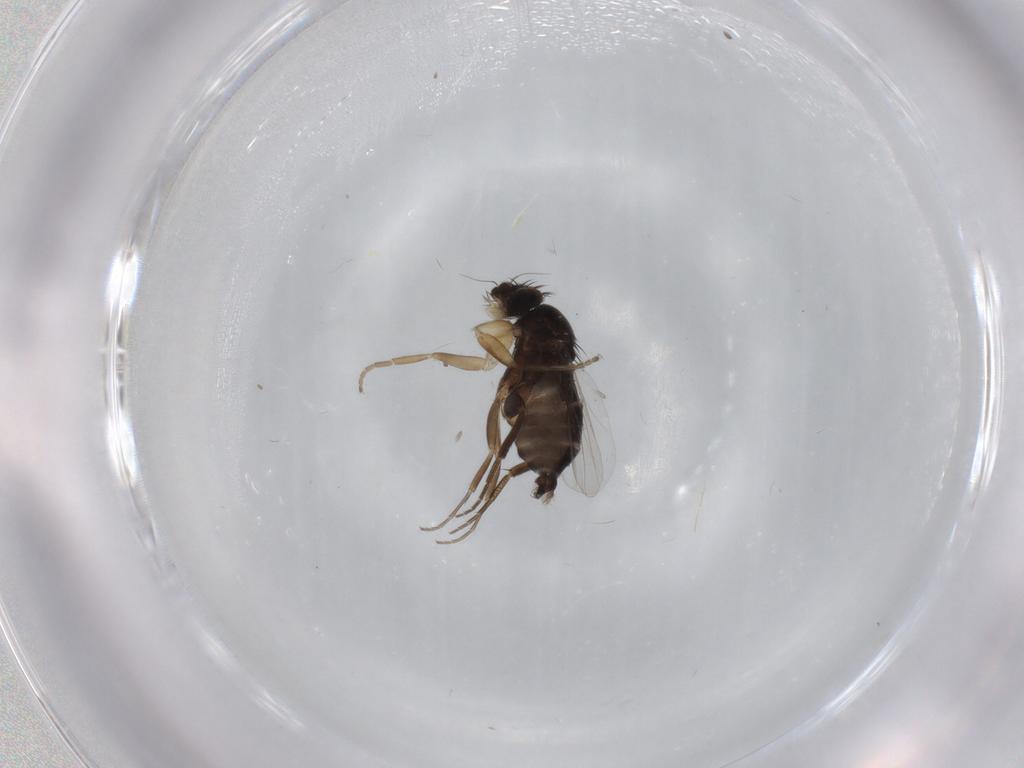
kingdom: Animalia
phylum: Arthropoda
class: Insecta
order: Diptera
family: Phoridae
